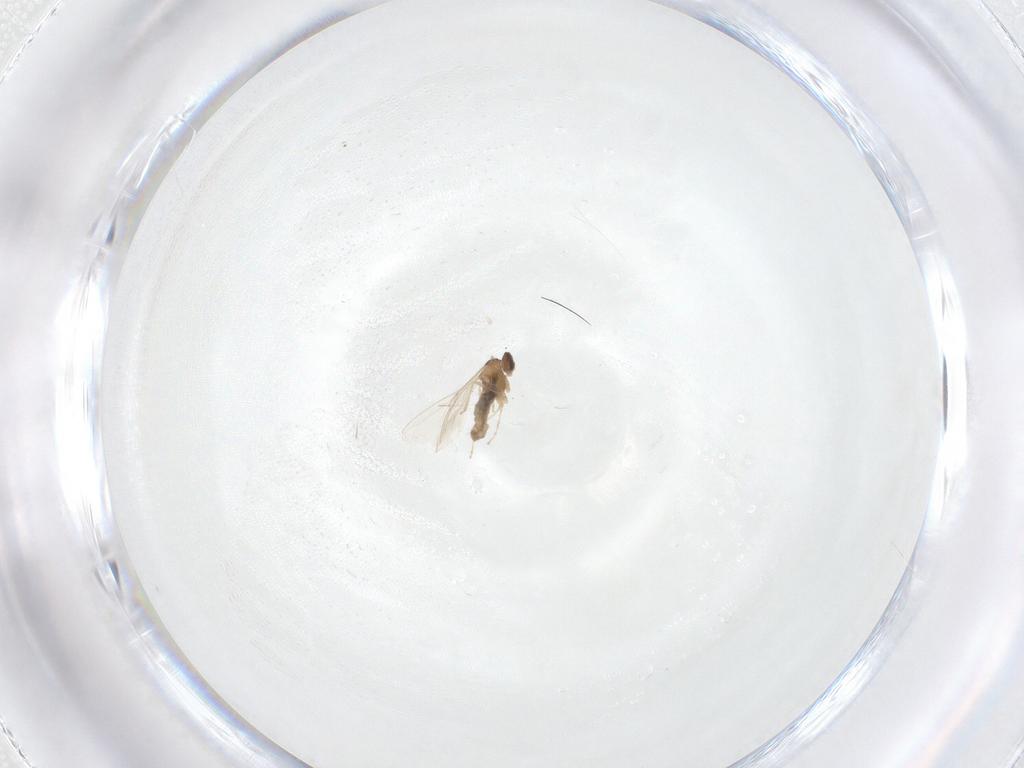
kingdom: Animalia
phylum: Arthropoda
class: Insecta
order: Diptera
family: Cecidomyiidae
